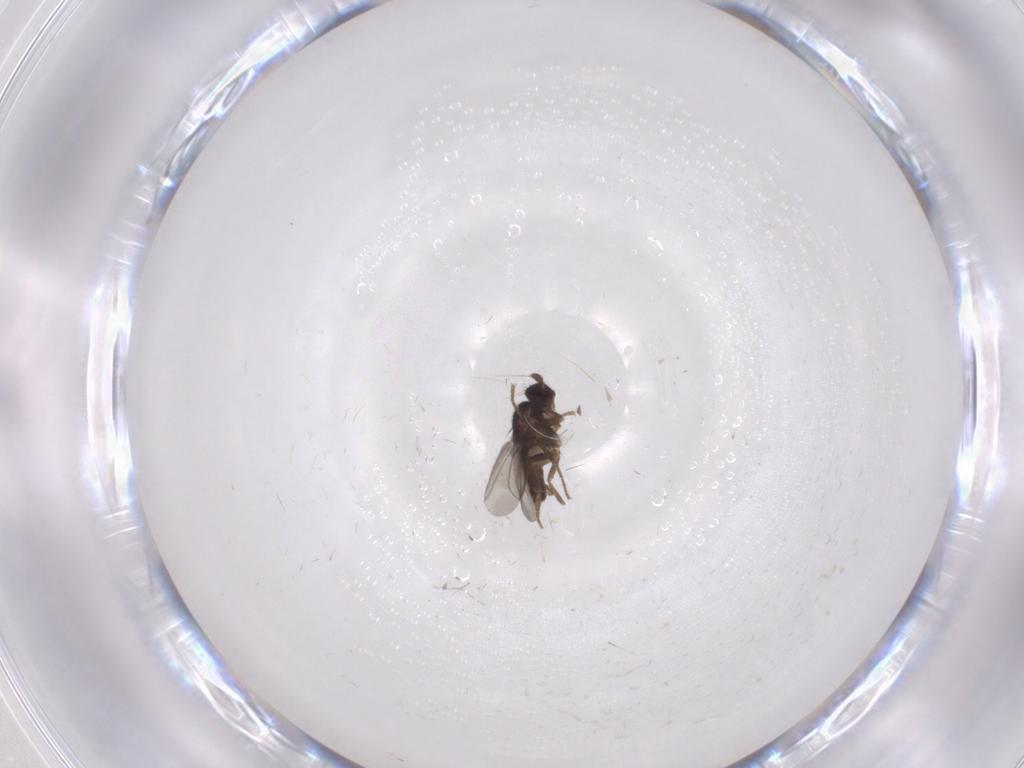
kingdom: Animalia
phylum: Arthropoda
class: Insecta
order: Diptera
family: Sphaeroceridae
